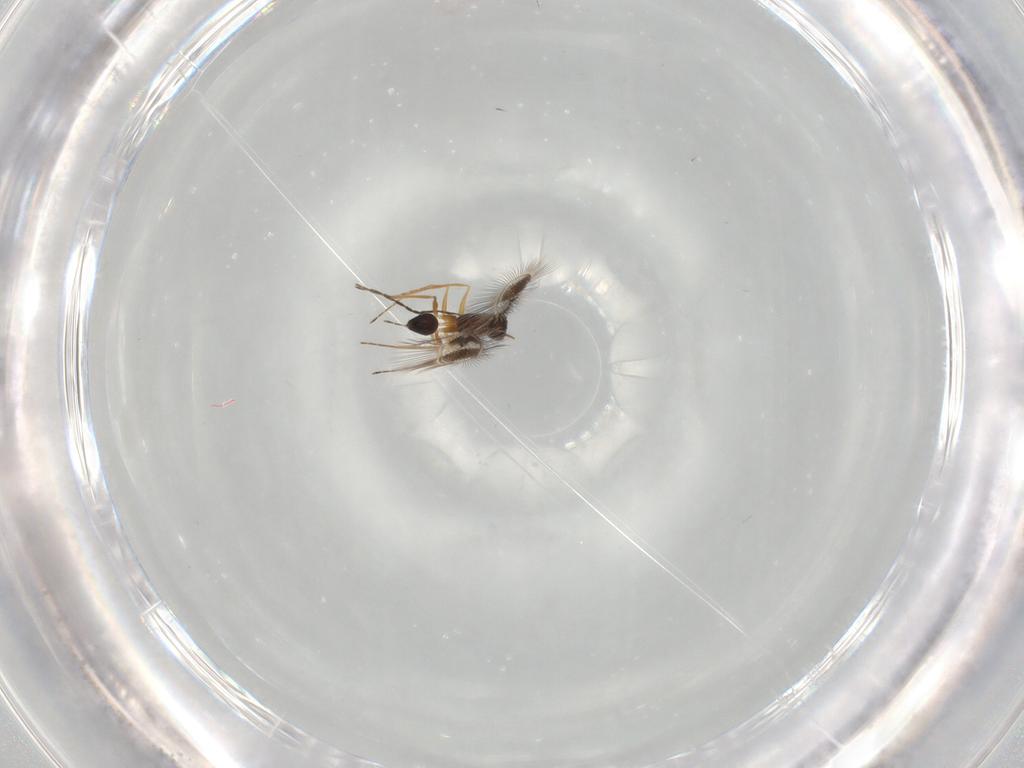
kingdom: Animalia
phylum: Arthropoda
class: Insecta
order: Hymenoptera
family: Mymaridae
